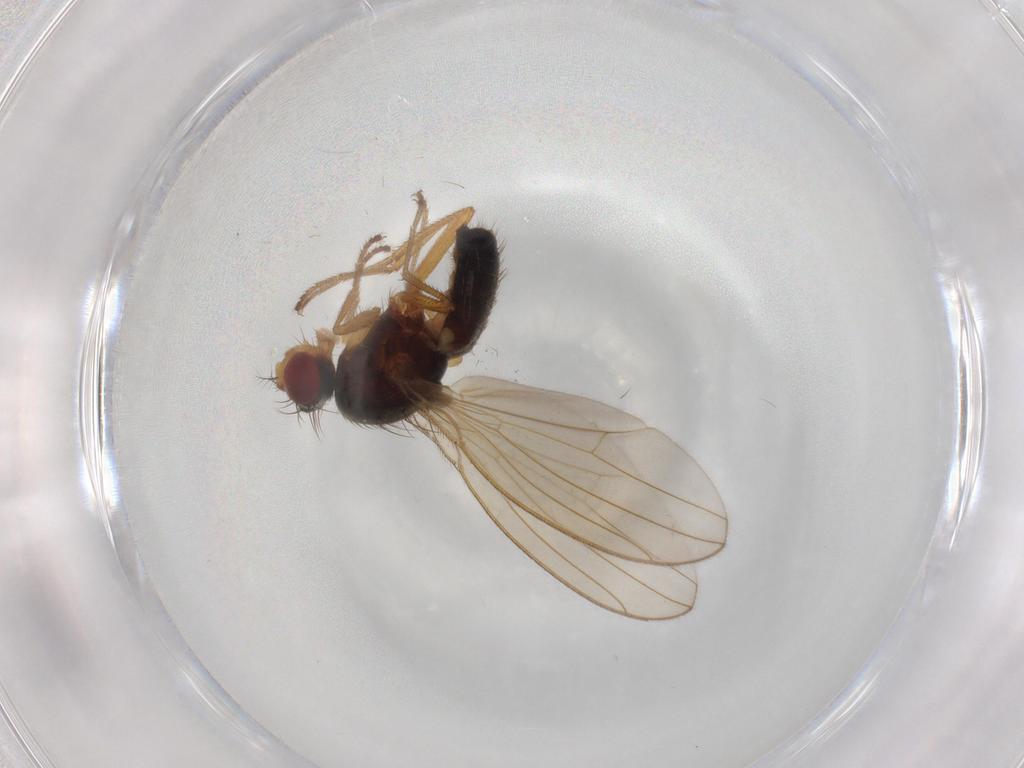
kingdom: Animalia
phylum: Arthropoda
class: Insecta
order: Diptera
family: Drosophilidae
